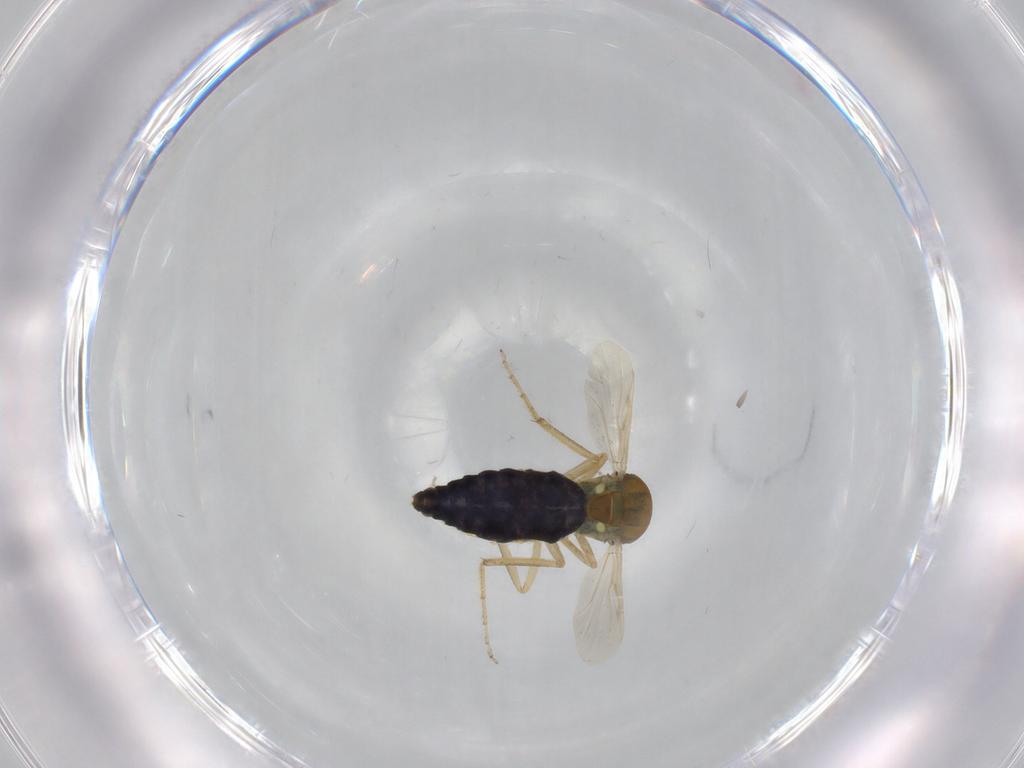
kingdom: Animalia
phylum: Arthropoda
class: Insecta
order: Diptera
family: Ceratopogonidae
